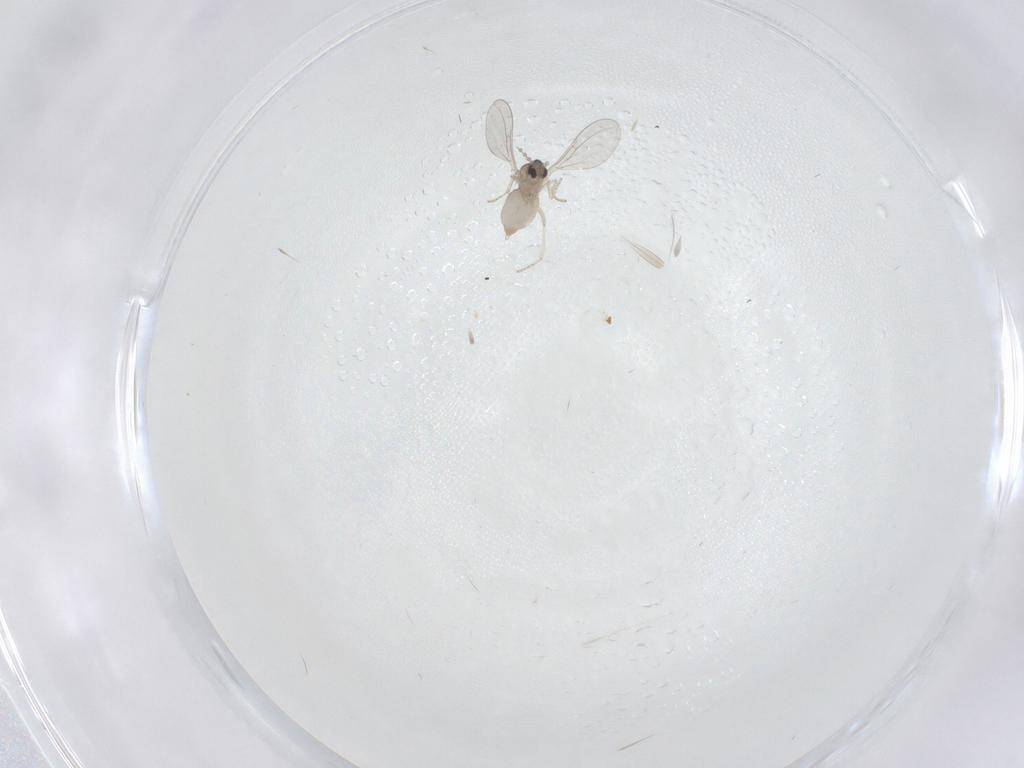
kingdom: Animalia
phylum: Arthropoda
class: Insecta
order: Diptera
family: Cecidomyiidae
